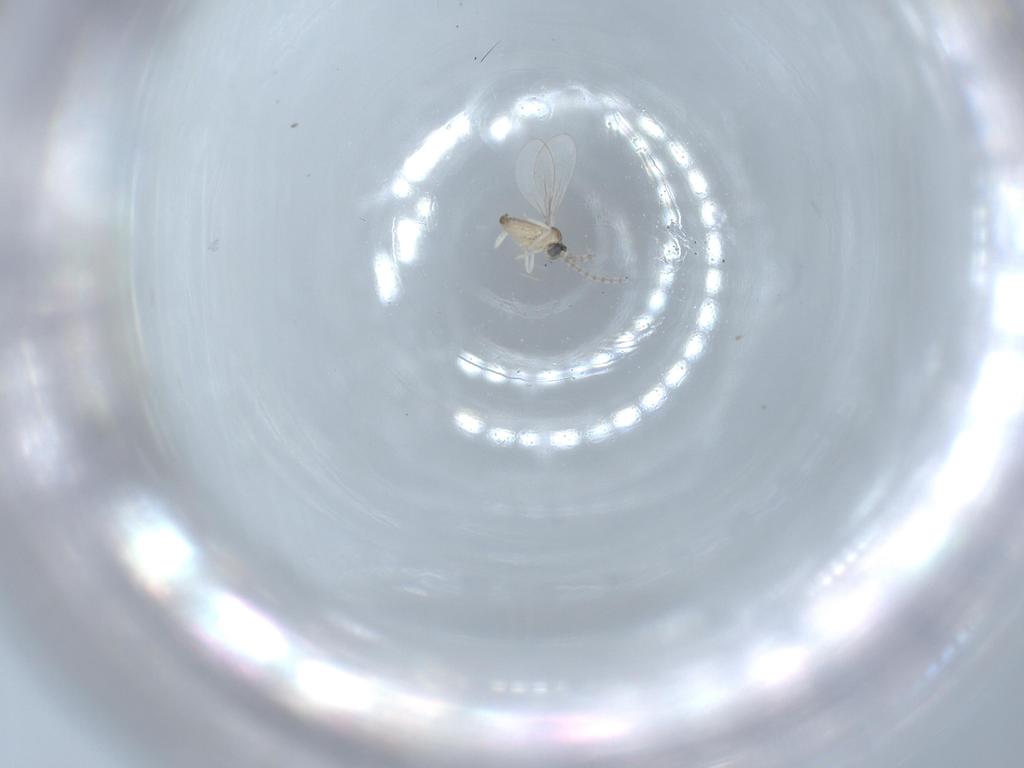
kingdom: Animalia
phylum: Arthropoda
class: Insecta
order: Diptera
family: Cecidomyiidae
